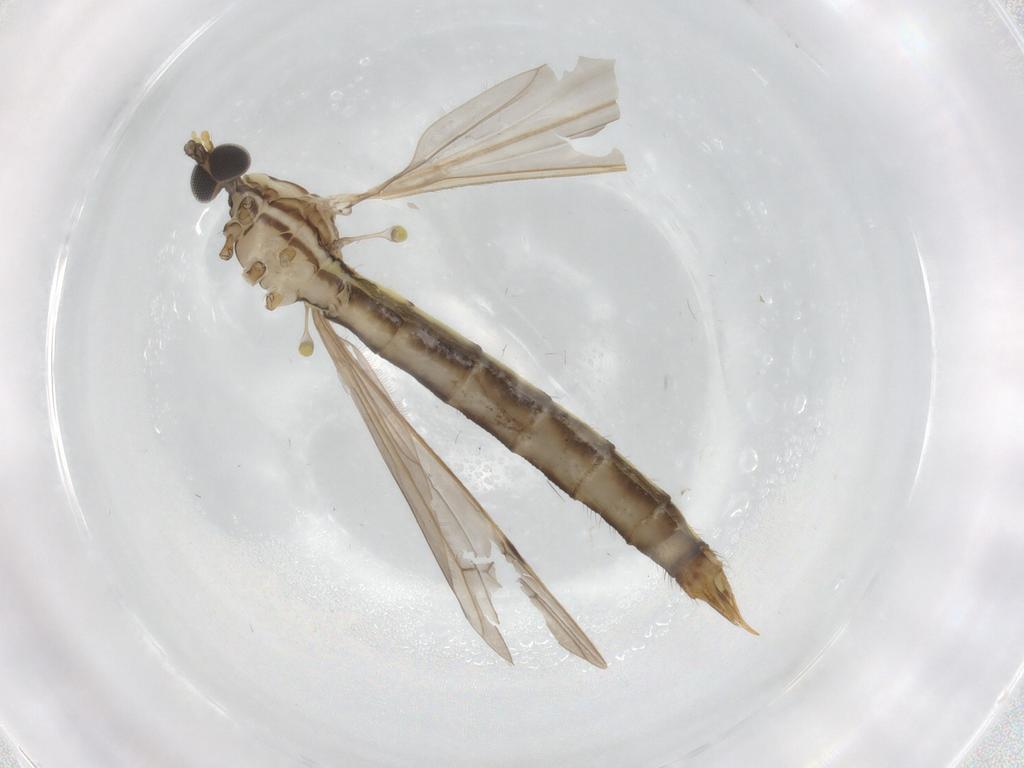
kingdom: Animalia
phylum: Arthropoda
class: Insecta
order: Diptera
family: Limoniidae
